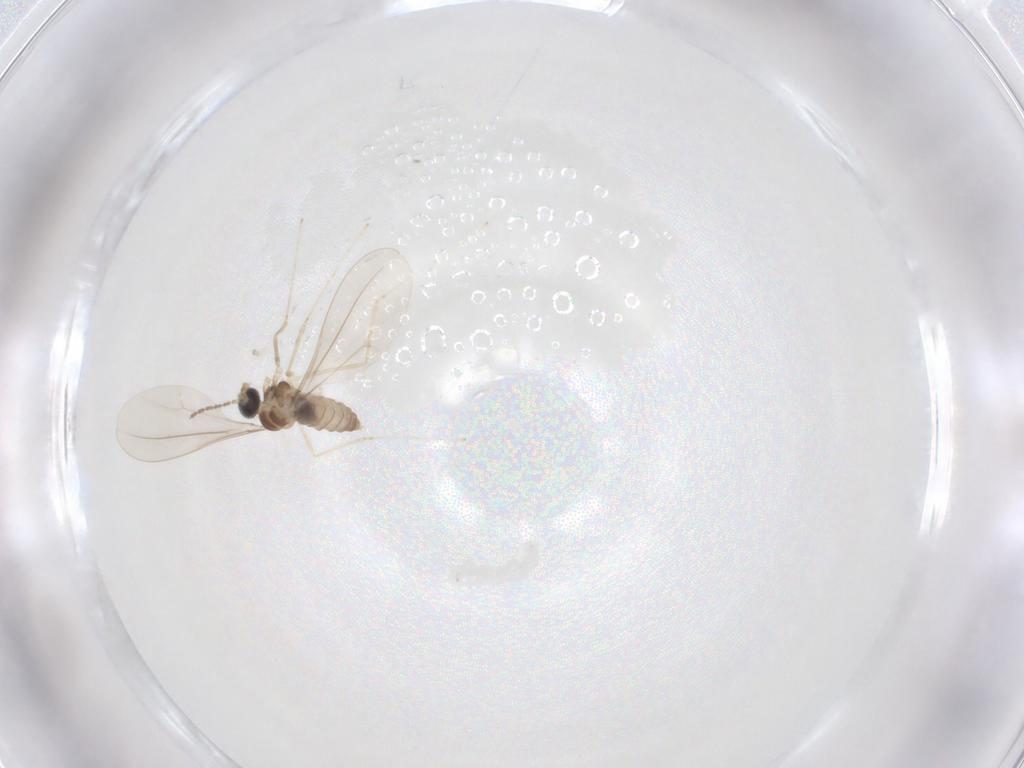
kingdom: Animalia
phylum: Arthropoda
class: Insecta
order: Diptera
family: Cecidomyiidae
